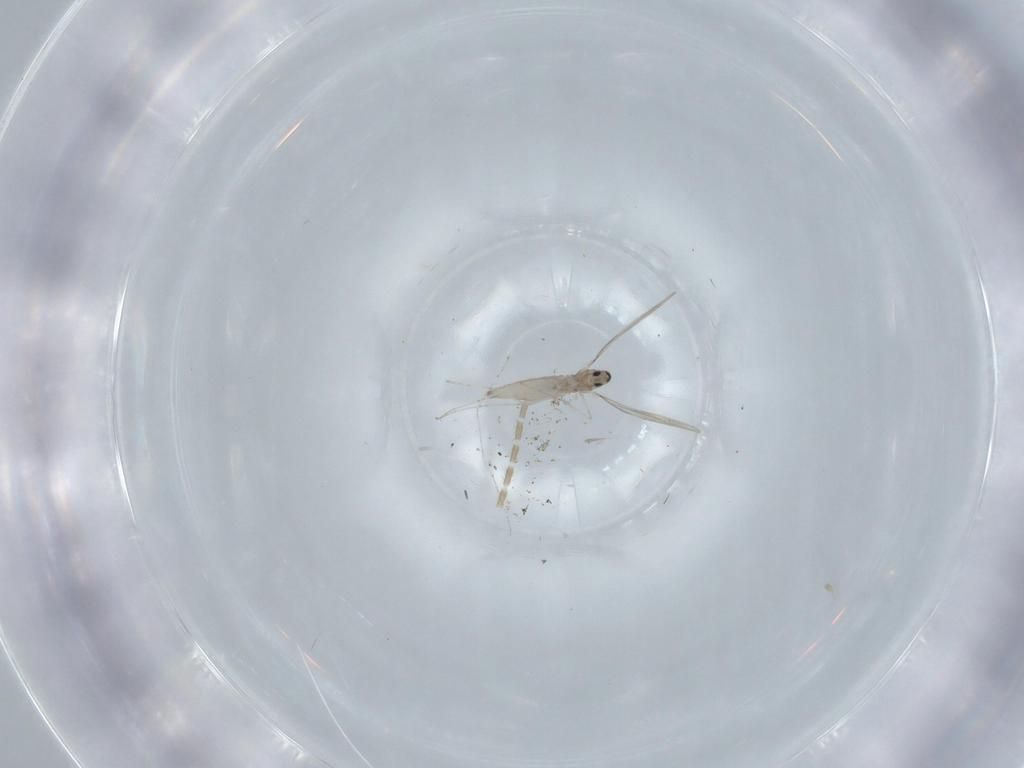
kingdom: Animalia
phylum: Arthropoda
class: Insecta
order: Diptera
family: Cecidomyiidae
